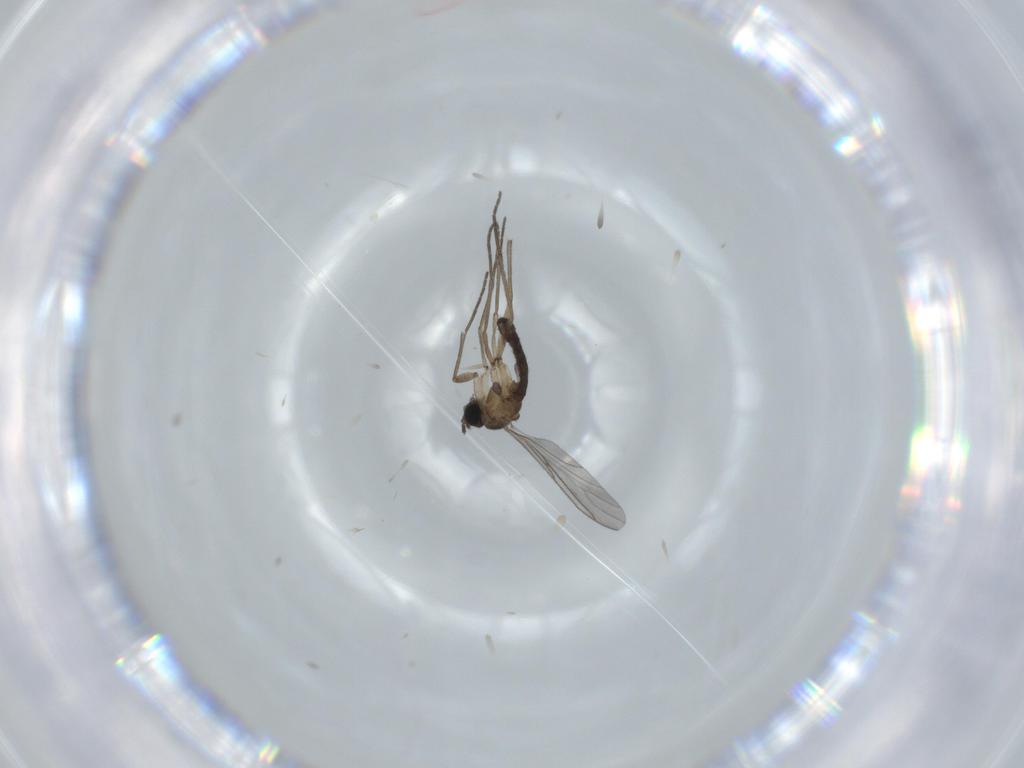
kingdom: Animalia
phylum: Arthropoda
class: Insecta
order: Diptera
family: Sciaridae
